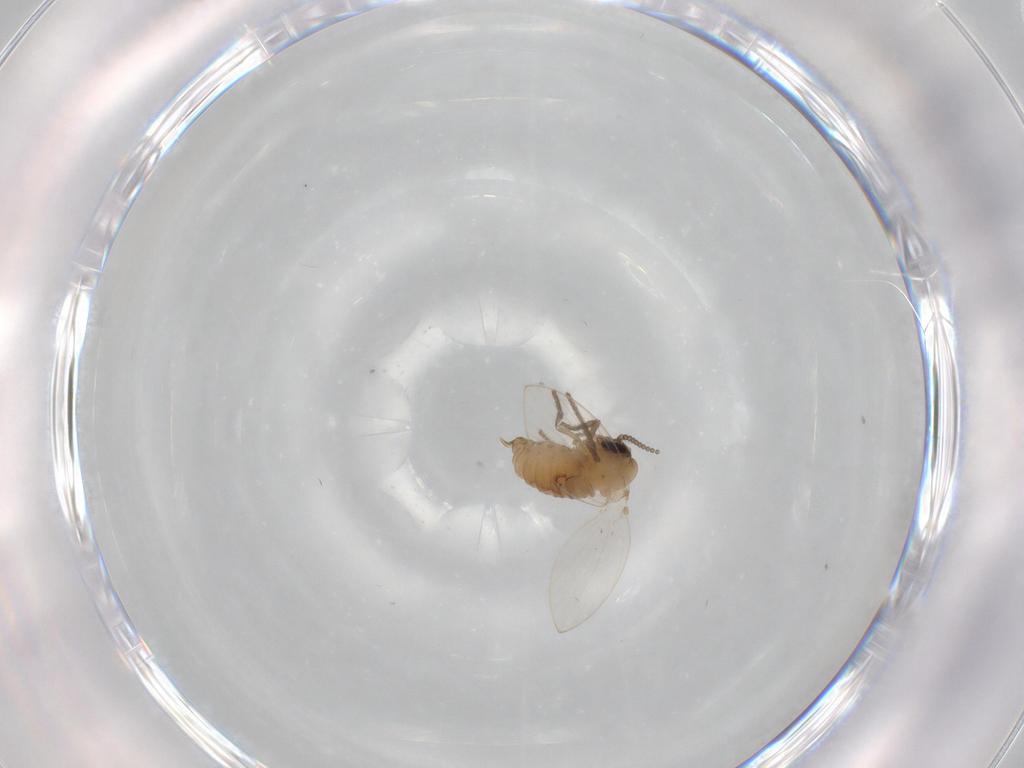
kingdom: Animalia
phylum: Arthropoda
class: Insecta
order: Diptera
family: Psychodidae
